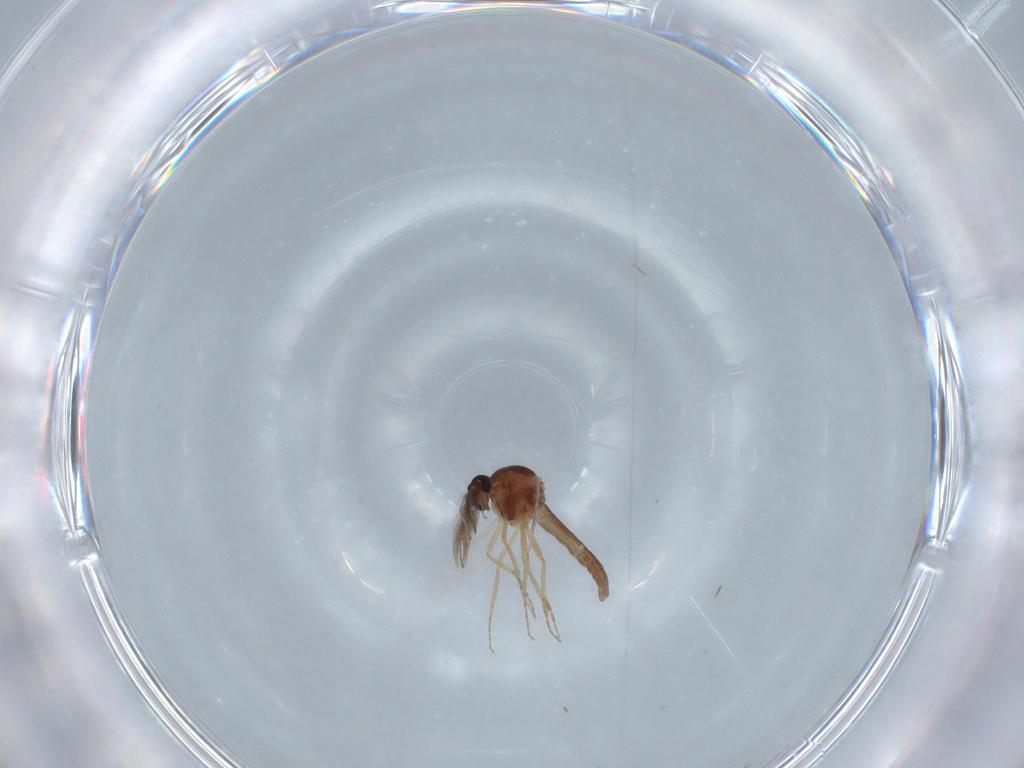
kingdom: Animalia
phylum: Arthropoda
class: Insecta
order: Diptera
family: Ceratopogonidae
